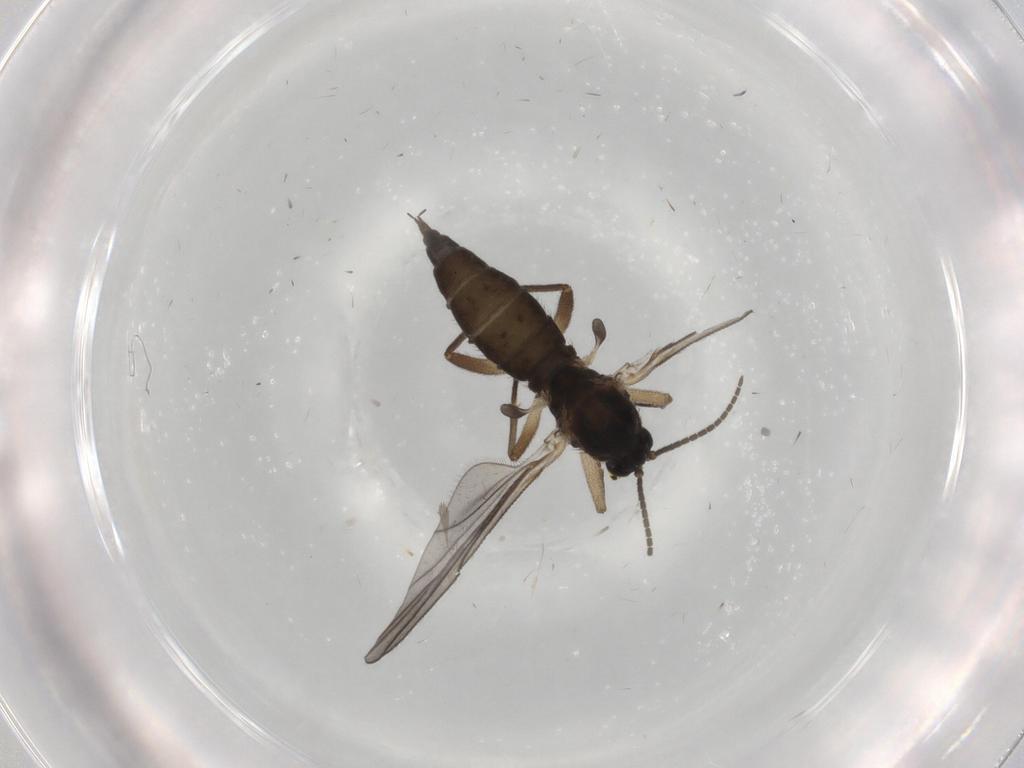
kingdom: Animalia
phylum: Arthropoda
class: Insecta
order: Diptera
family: Sciaridae
